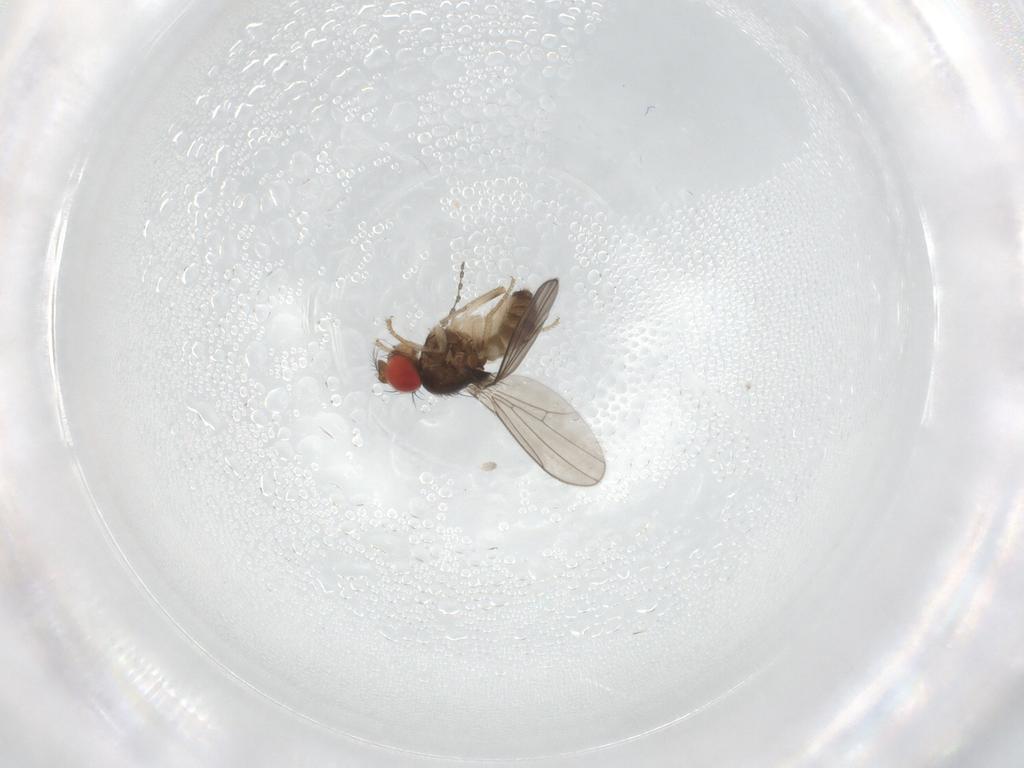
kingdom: Animalia
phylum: Arthropoda
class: Insecta
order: Diptera
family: Drosophilidae
